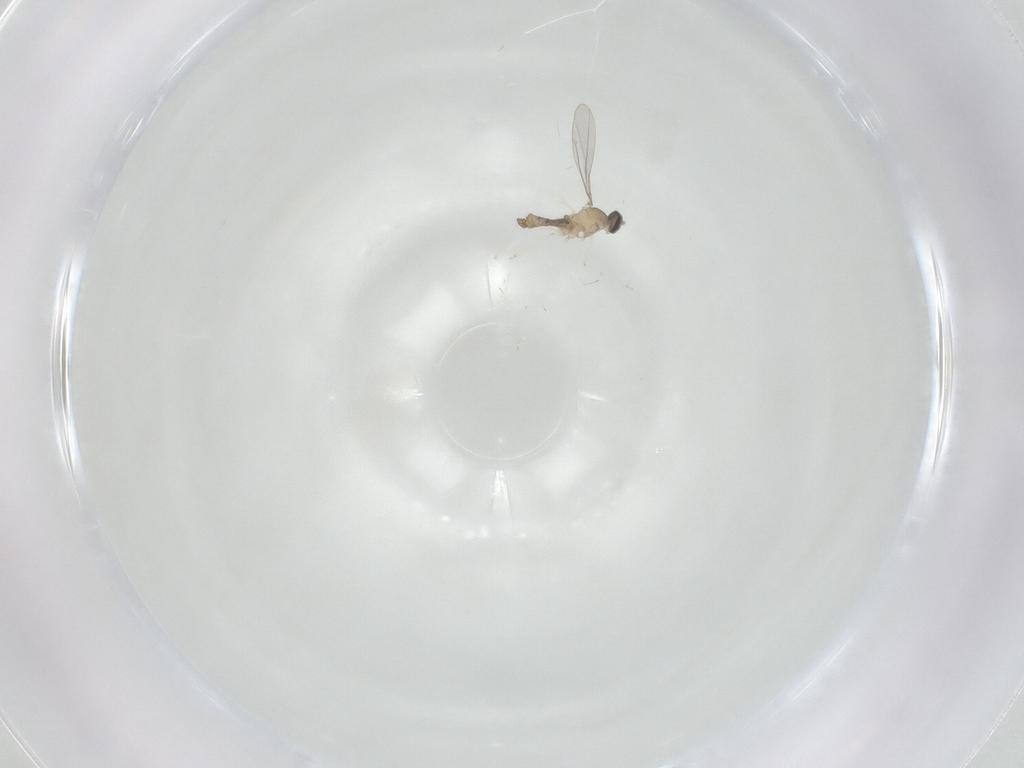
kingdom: Animalia
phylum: Arthropoda
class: Insecta
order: Diptera
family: Cecidomyiidae
